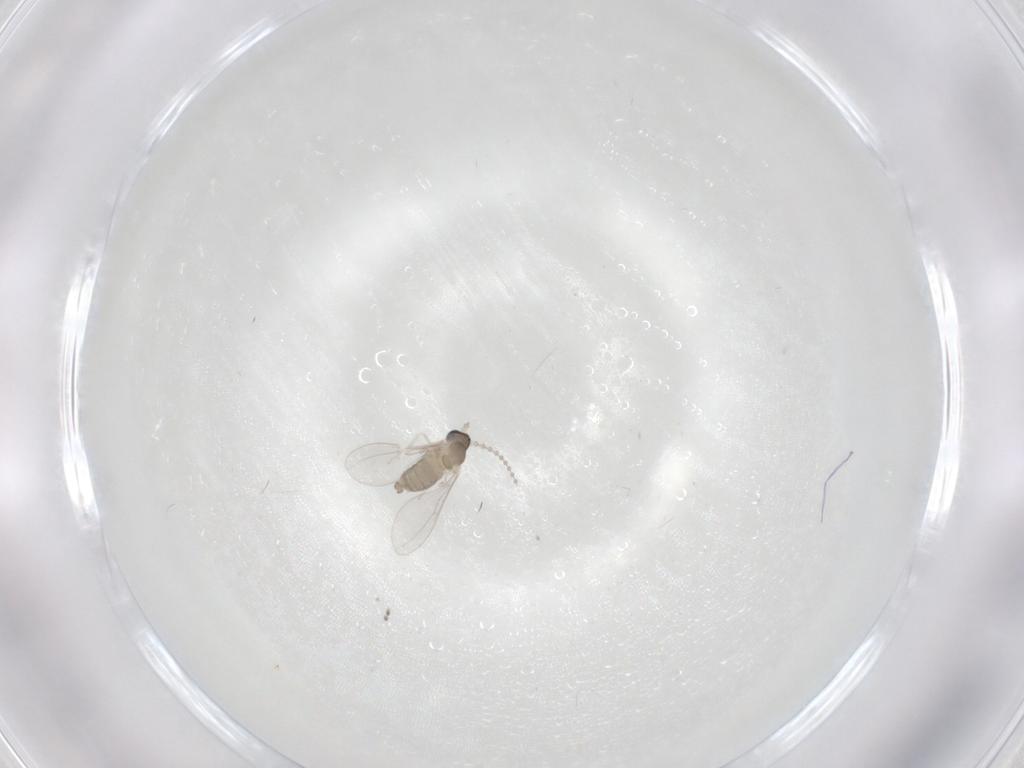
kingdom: Animalia
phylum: Arthropoda
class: Insecta
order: Diptera
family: Cecidomyiidae
